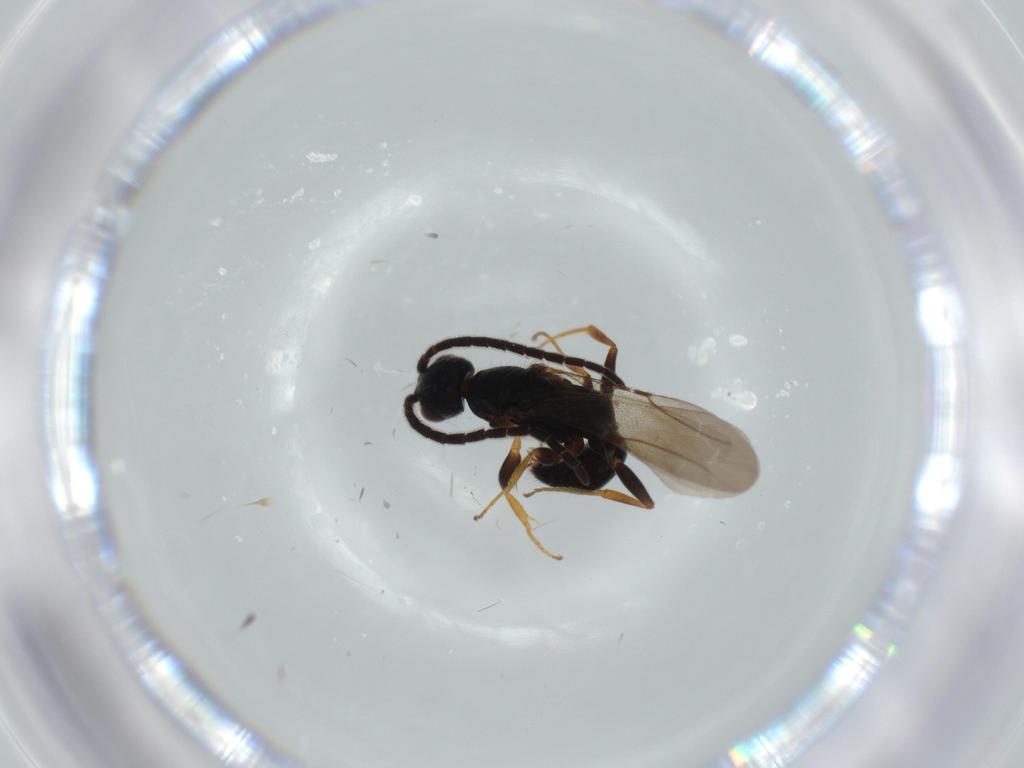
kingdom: Animalia
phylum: Arthropoda
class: Insecta
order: Hymenoptera
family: Bethylidae
